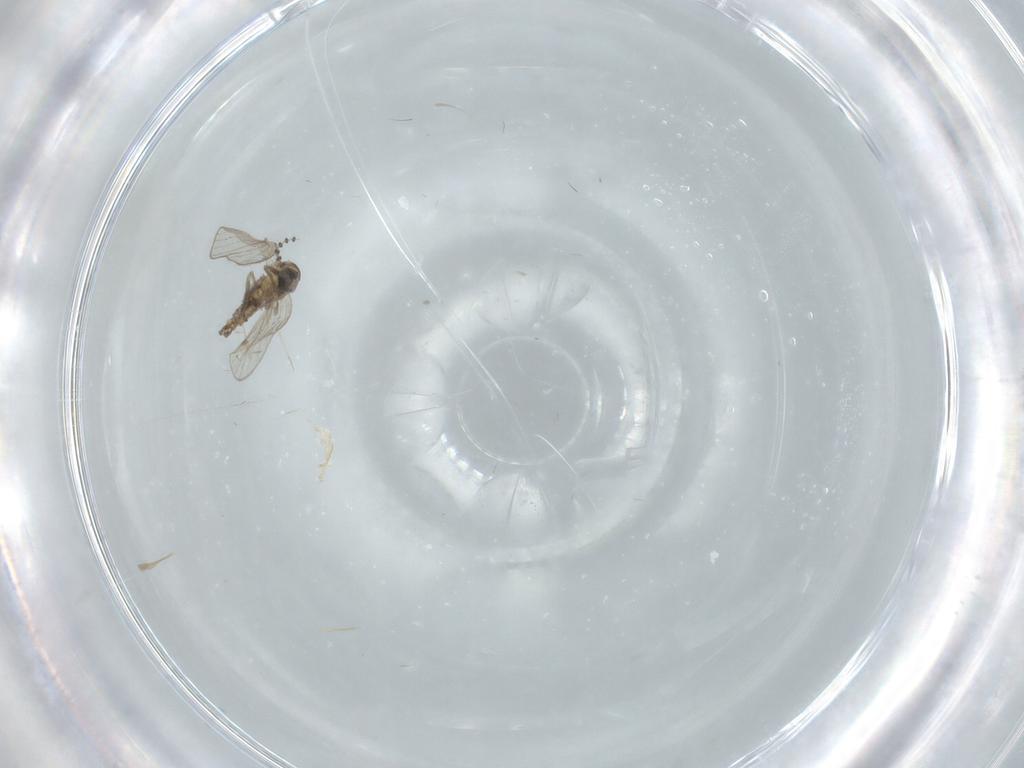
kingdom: Animalia
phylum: Arthropoda
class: Insecta
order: Diptera
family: Psychodidae
